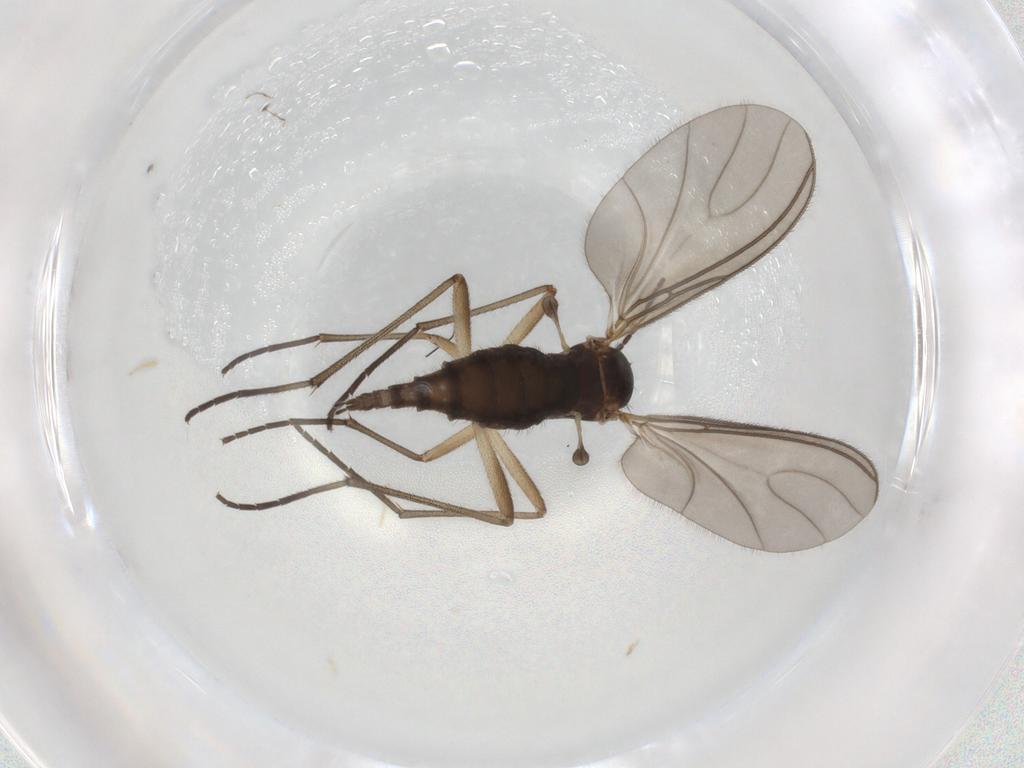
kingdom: Animalia
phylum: Arthropoda
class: Insecta
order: Diptera
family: Sciaridae
